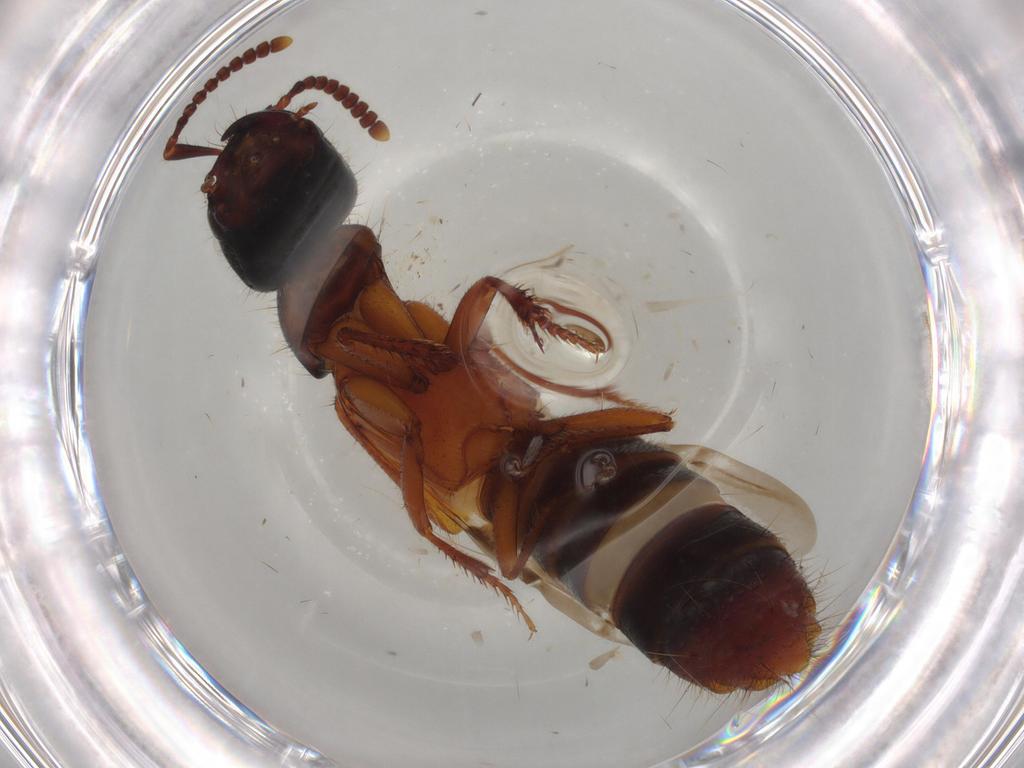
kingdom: Animalia
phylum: Arthropoda
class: Insecta
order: Coleoptera
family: Staphylinidae
